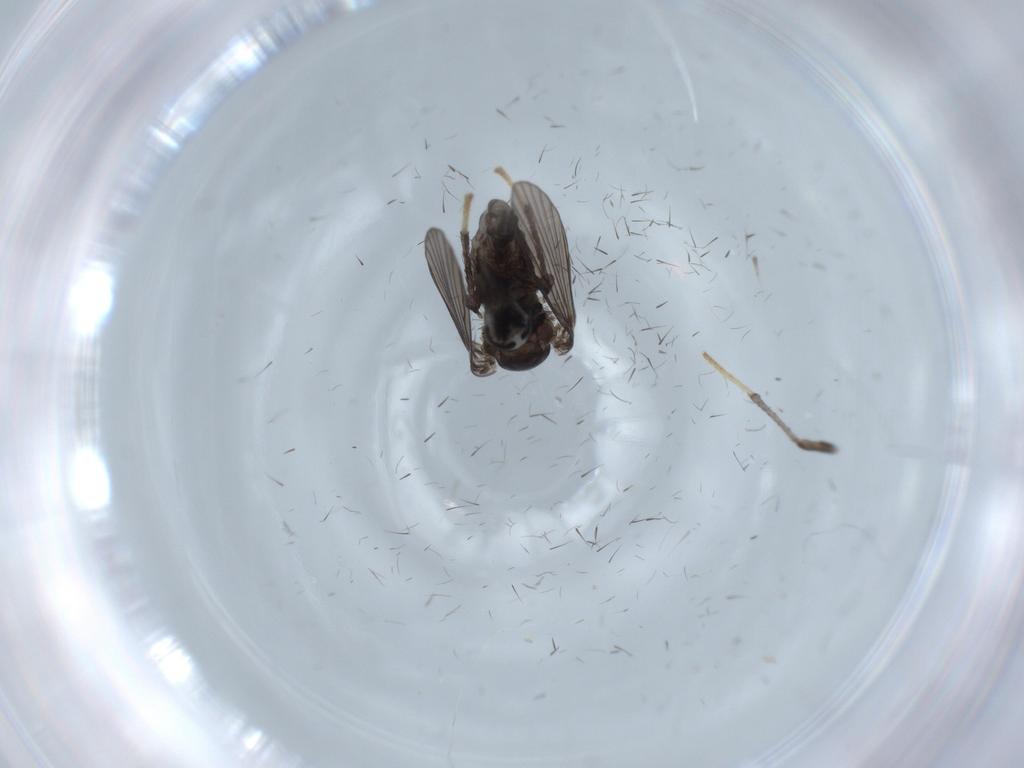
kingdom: Animalia
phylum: Arthropoda
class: Insecta
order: Diptera
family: Psychodidae
